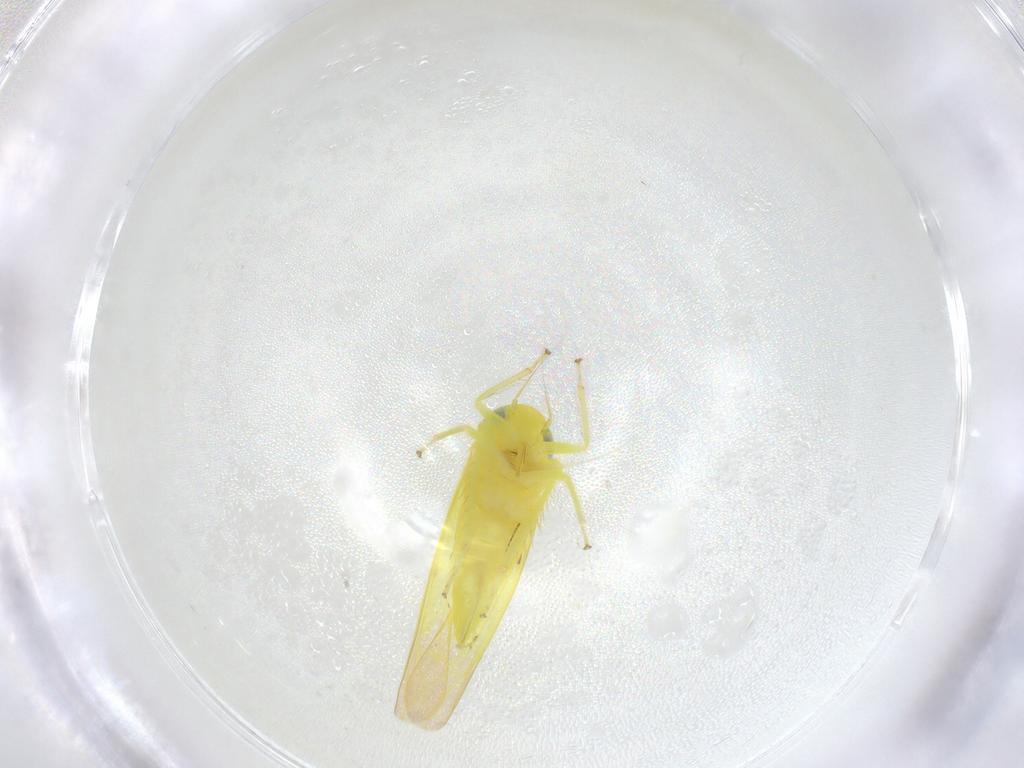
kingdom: Animalia
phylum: Arthropoda
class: Insecta
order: Hemiptera
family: Cicadellidae
